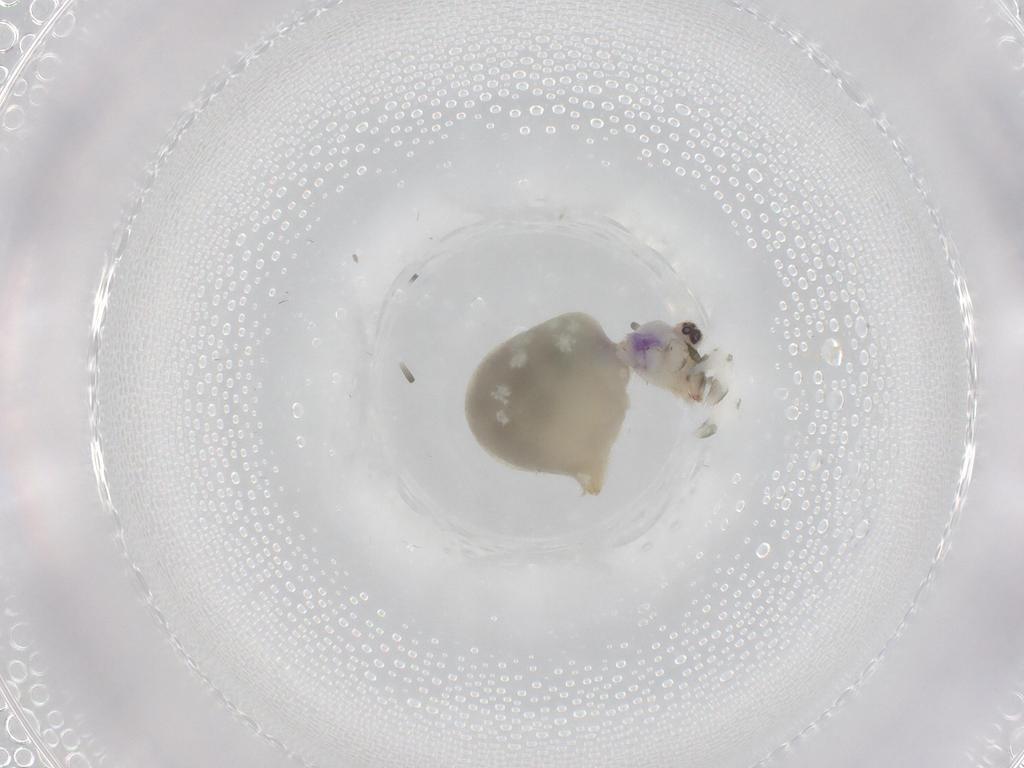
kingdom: Animalia
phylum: Arthropoda
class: Arachnida
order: Araneae
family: Pholcidae
